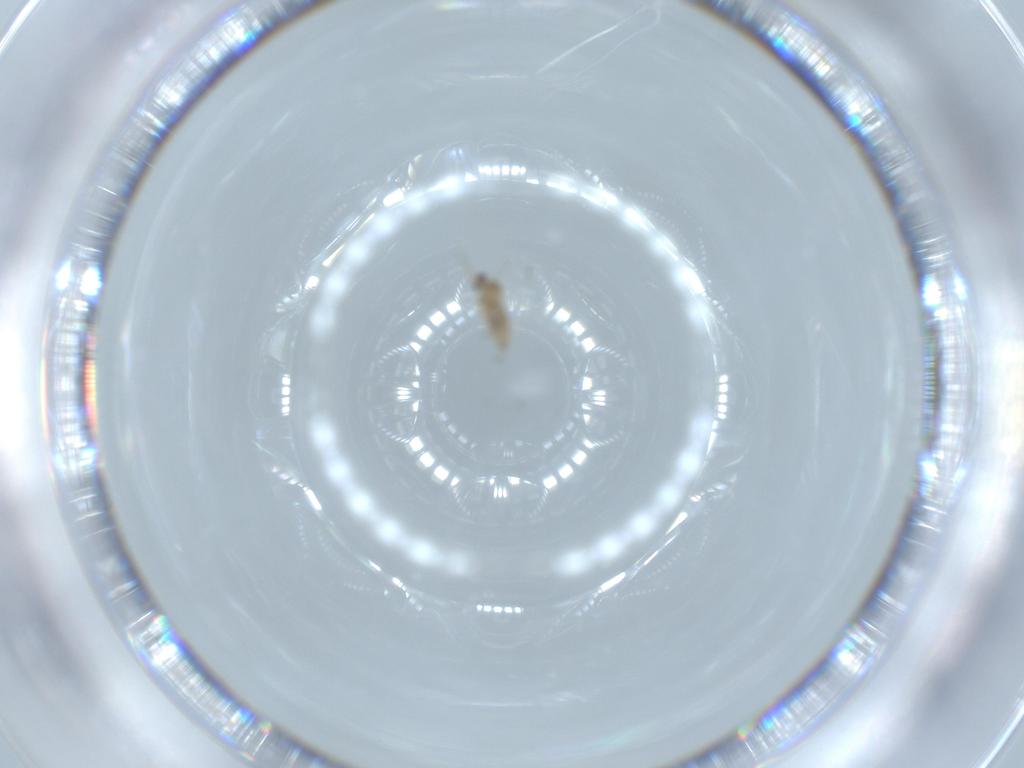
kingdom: Animalia
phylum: Arthropoda
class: Insecta
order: Diptera
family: Cecidomyiidae
